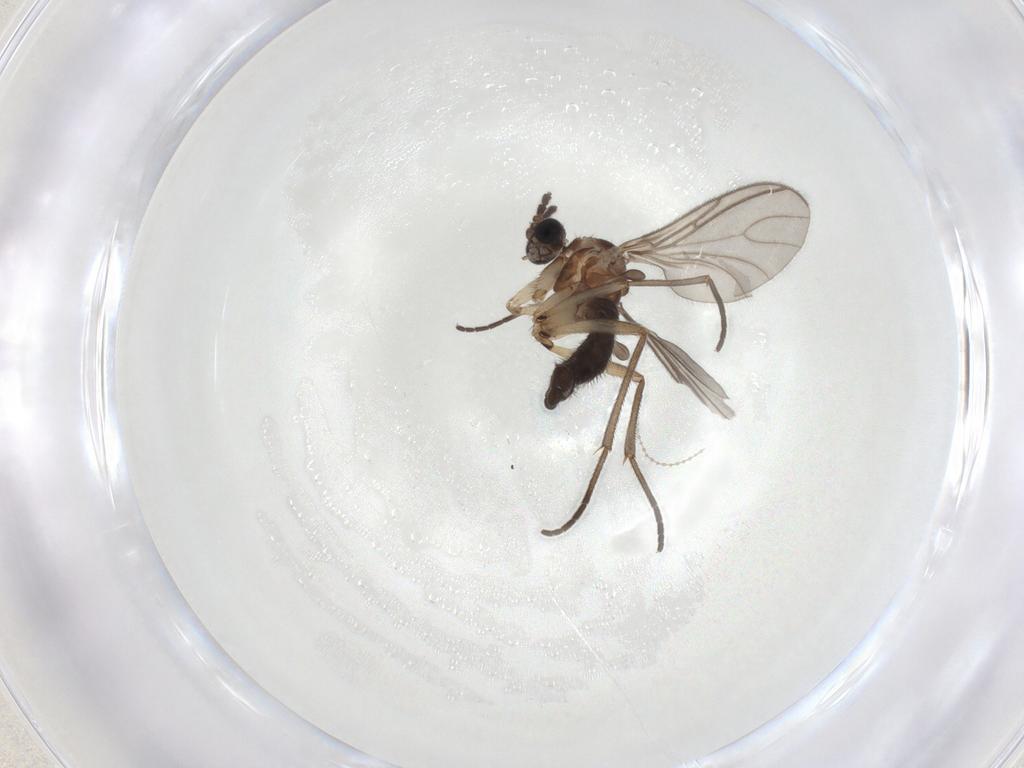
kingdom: Animalia
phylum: Arthropoda
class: Insecta
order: Diptera
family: Sciaridae
